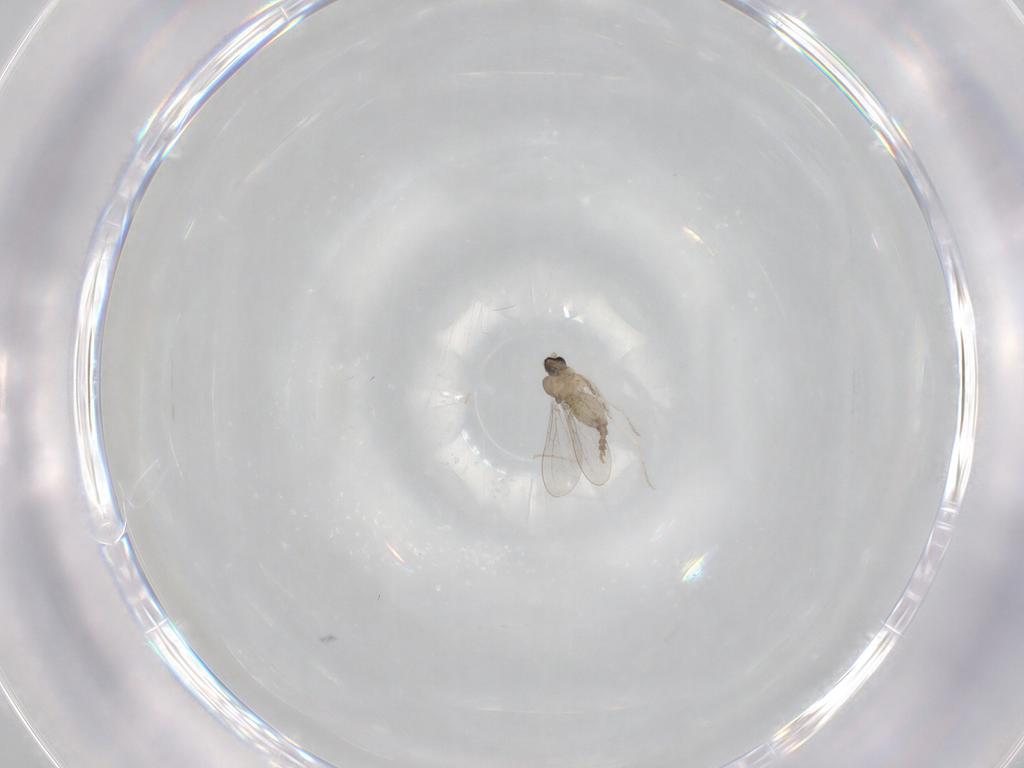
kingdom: Animalia
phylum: Arthropoda
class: Insecta
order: Diptera
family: Cecidomyiidae
